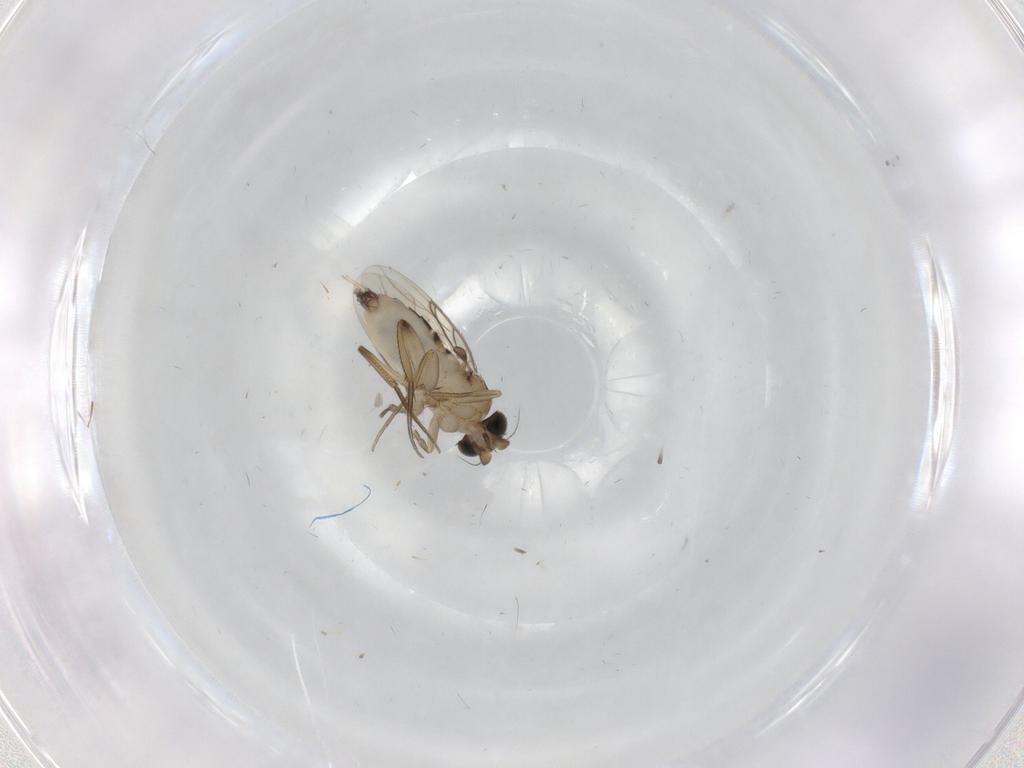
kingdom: Animalia
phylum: Arthropoda
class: Insecta
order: Diptera
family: Phoridae
